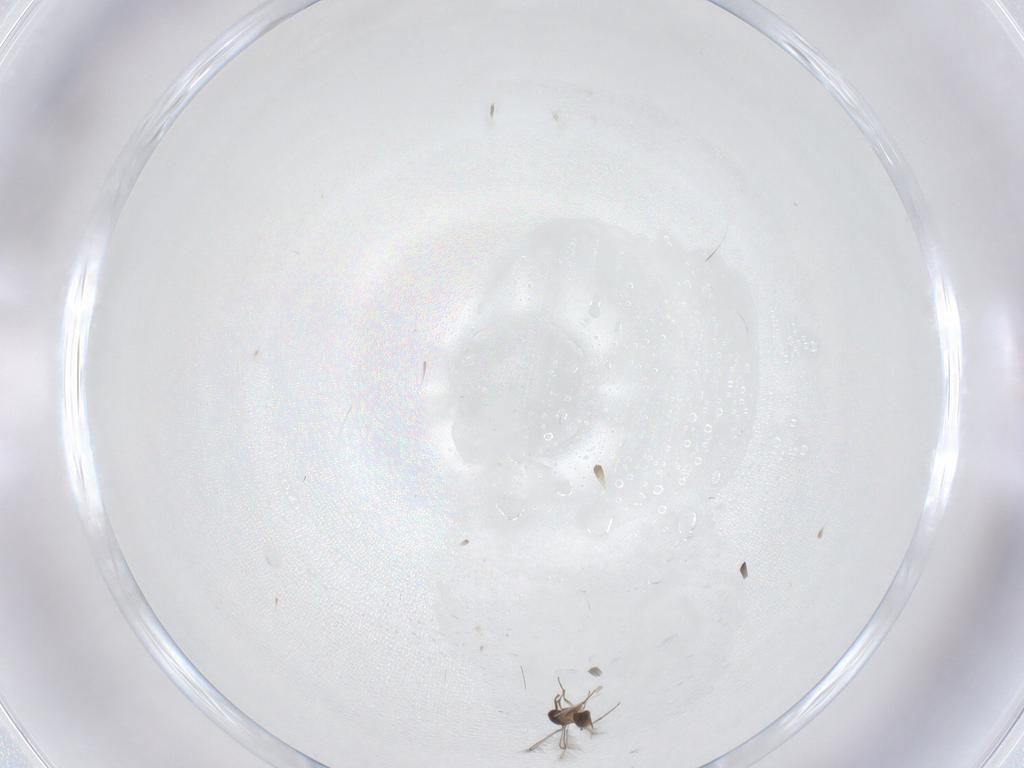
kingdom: Animalia
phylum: Arthropoda
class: Insecta
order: Hymenoptera
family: Mymaridae
